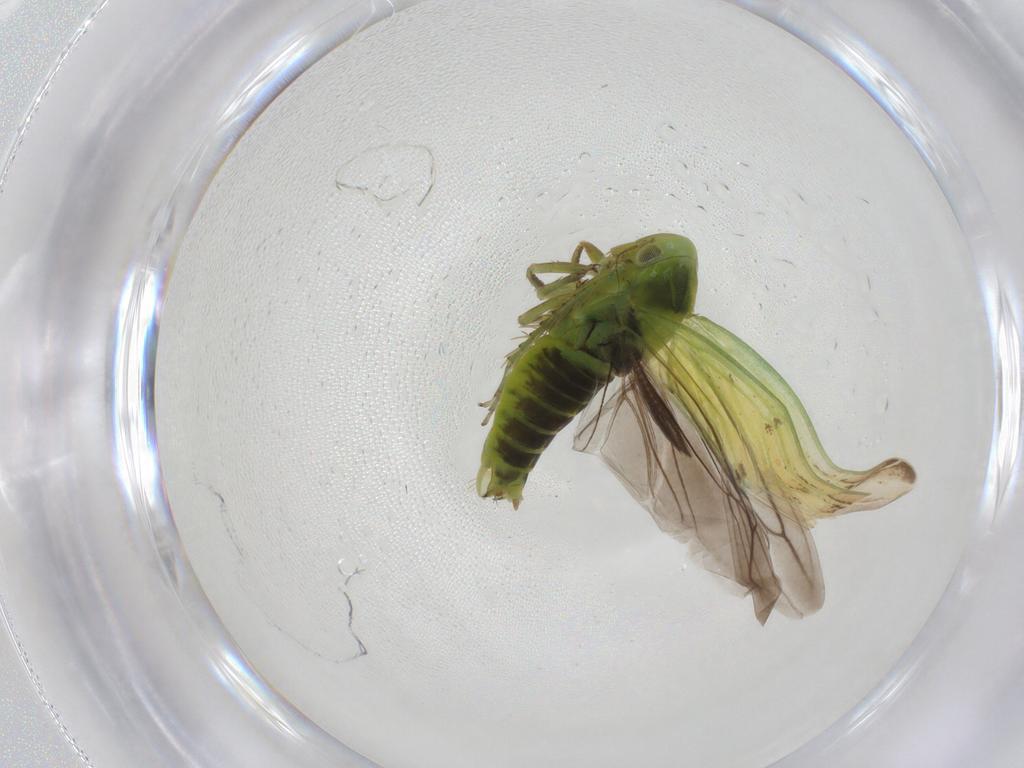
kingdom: Animalia
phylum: Arthropoda
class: Insecta
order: Hemiptera
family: Cicadellidae
